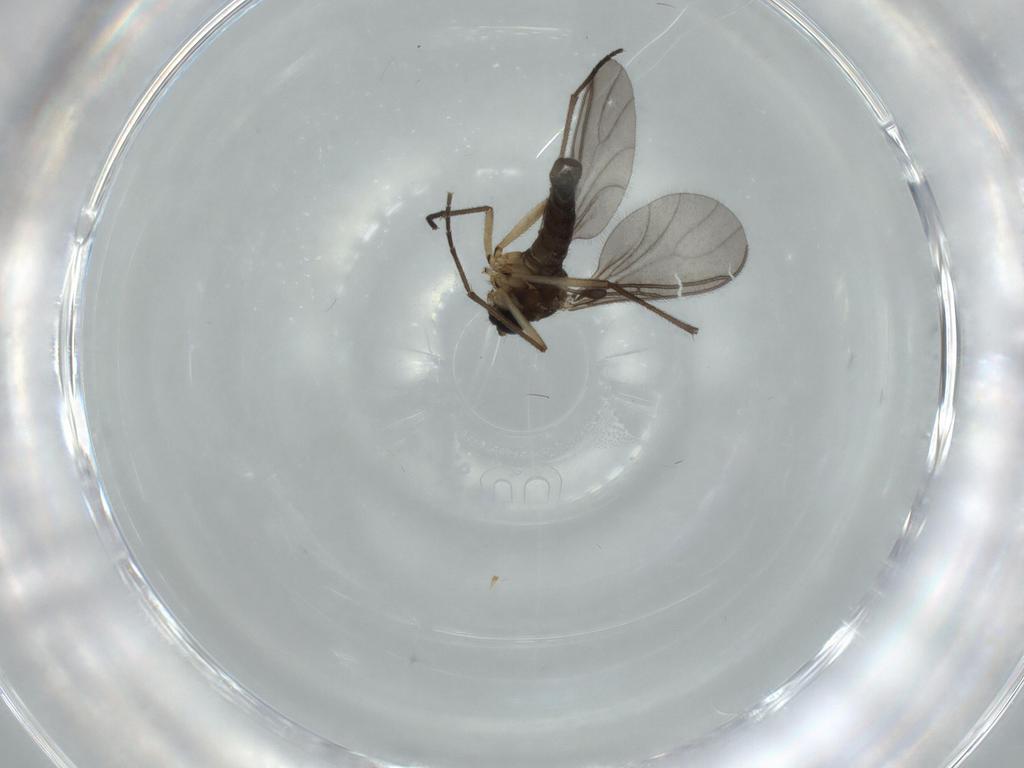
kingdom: Animalia
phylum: Arthropoda
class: Insecta
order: Diptera
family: Sciaridae
